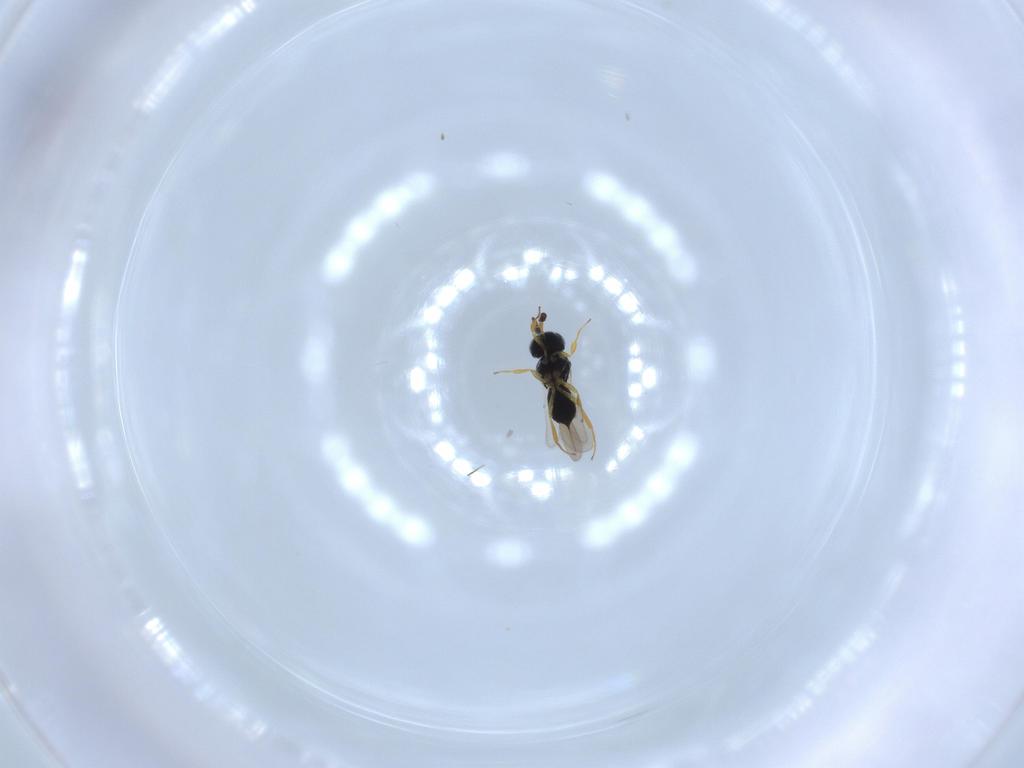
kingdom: Animalia
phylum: Arthropoda
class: Insecta
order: Hymenoptera
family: Scelionidae
